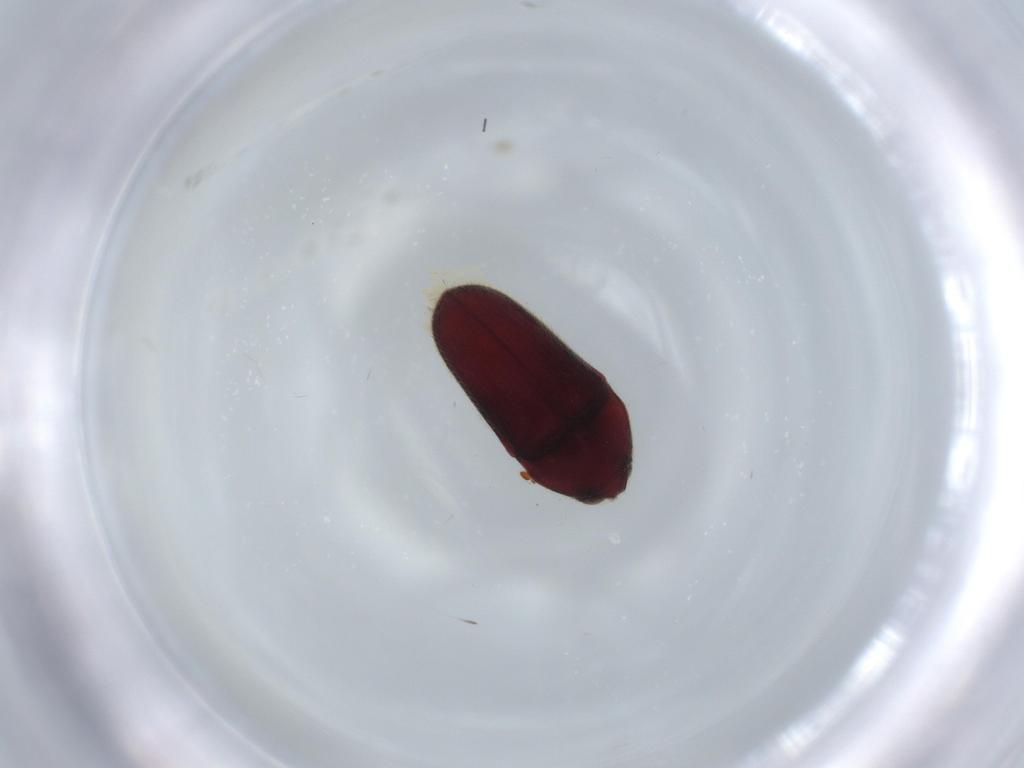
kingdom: Animalia
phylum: Arthropoda
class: Insecta
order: Coleoptera
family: Throscidae
